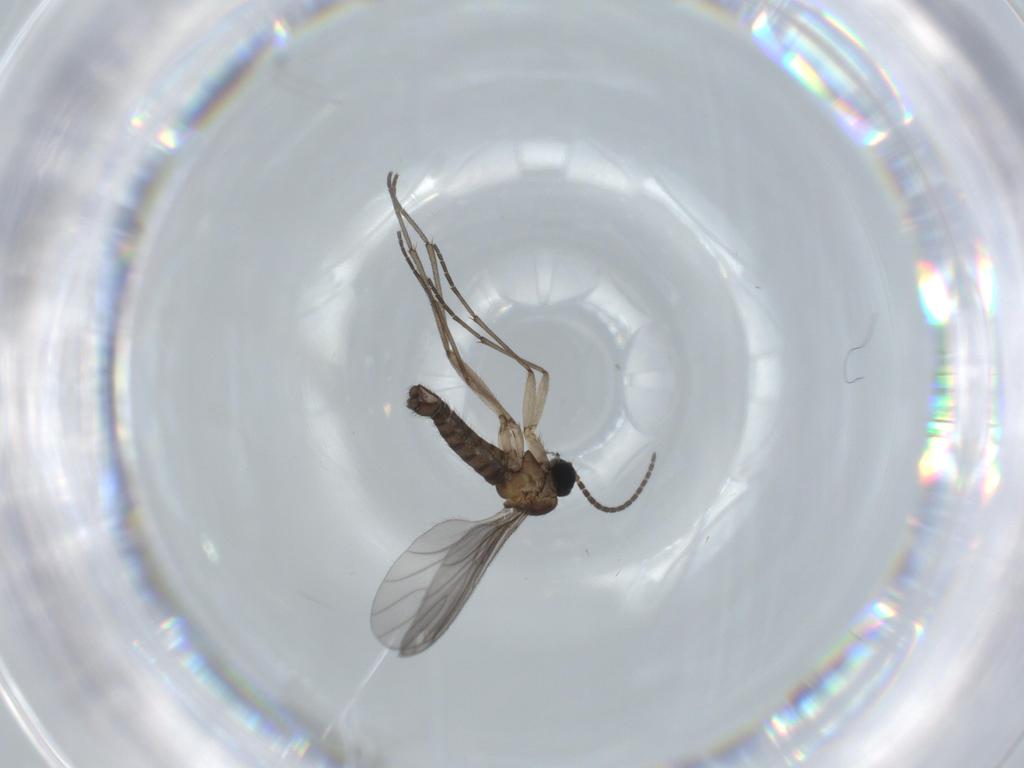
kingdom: Animalia
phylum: Arthropoda
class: Insecta
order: Diptera
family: Sciaridae
